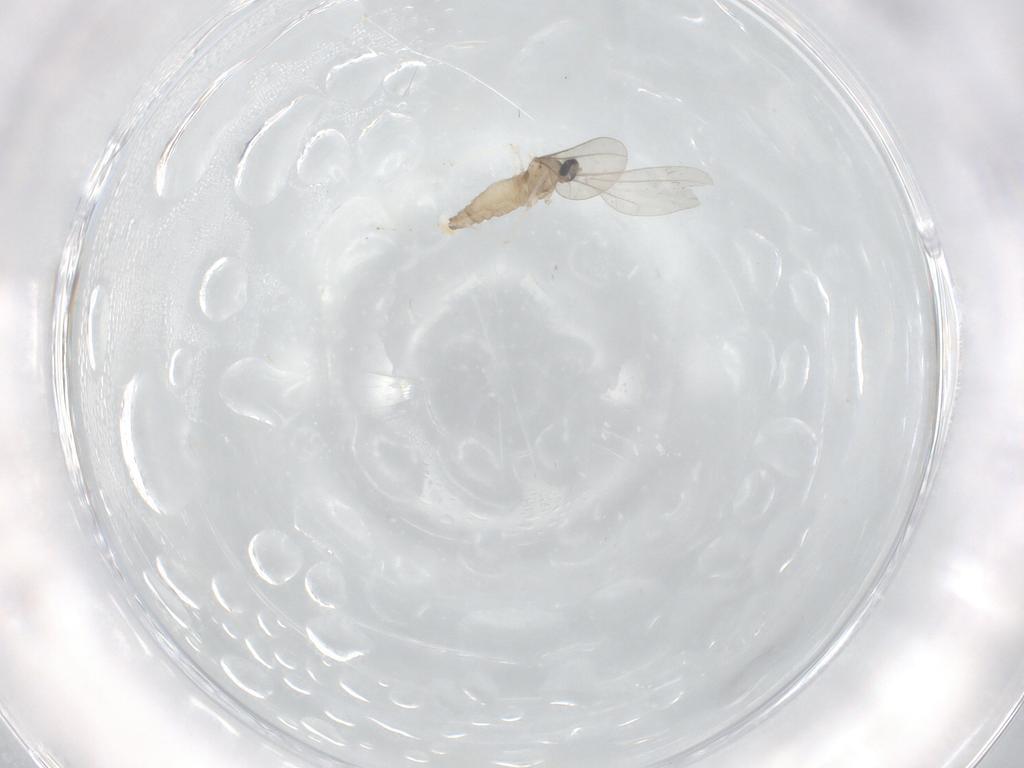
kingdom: Animalia
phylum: Arthropoda
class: Insecta
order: Diptera
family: Cecidomyiidae
